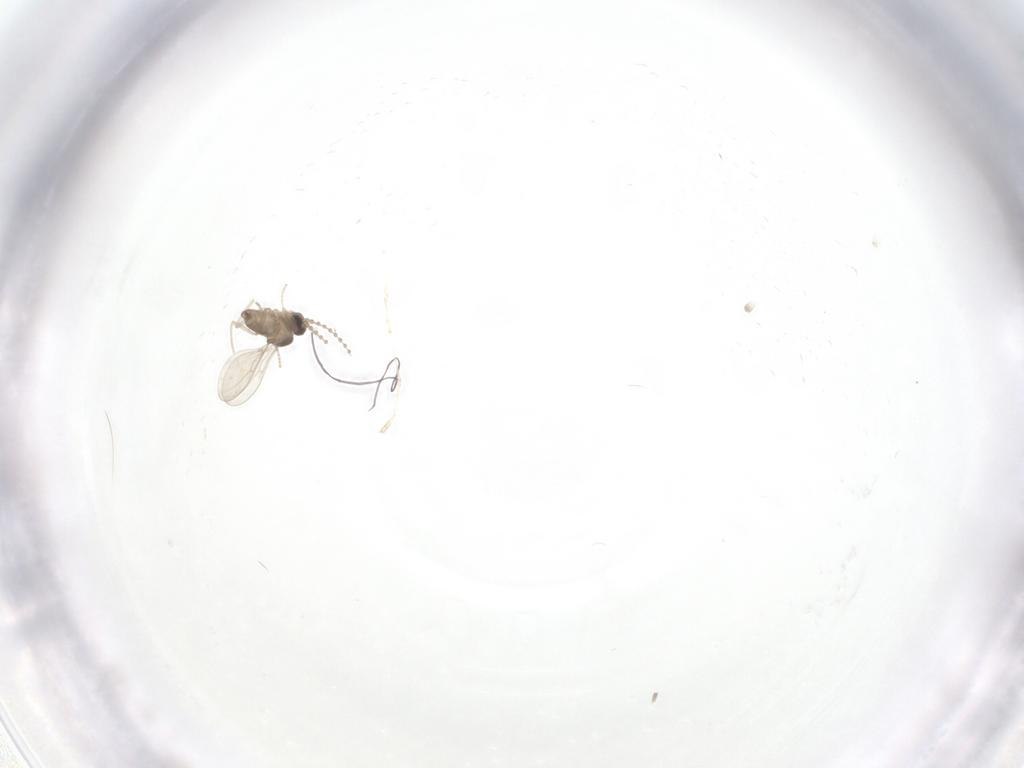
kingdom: Animalia
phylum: Arthropoda
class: Insecta
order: Diptera
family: Cecidomyiidae
